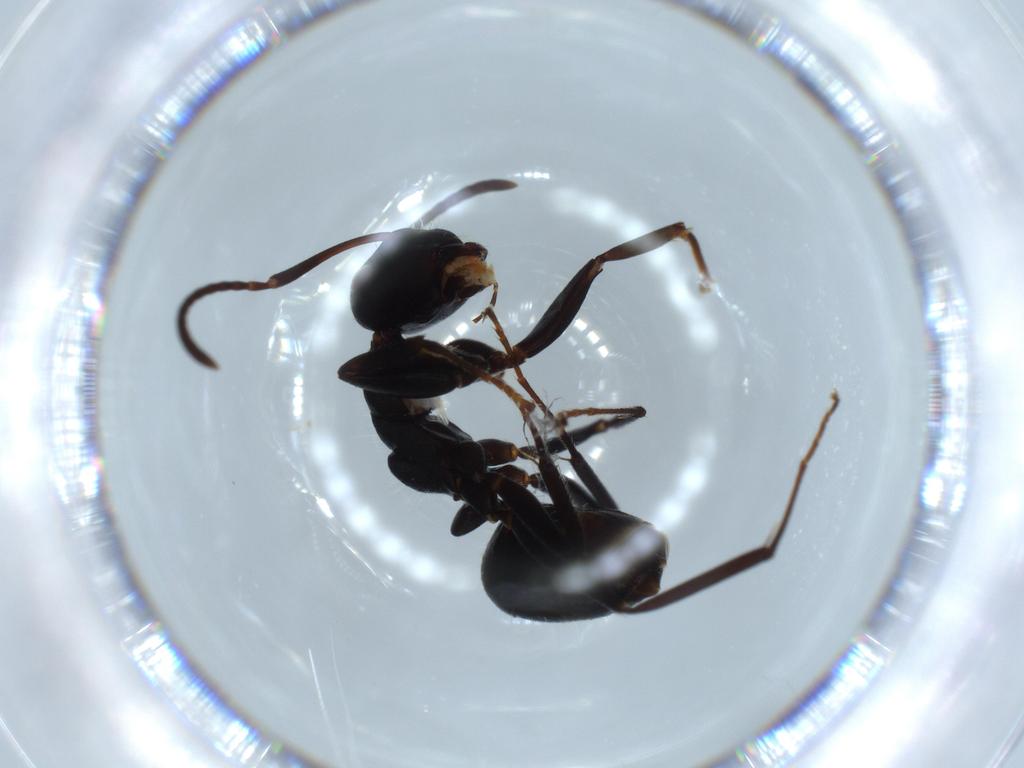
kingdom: Animalia
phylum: Arthropoda
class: Insecta
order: Hymenoptera
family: Formicidae
